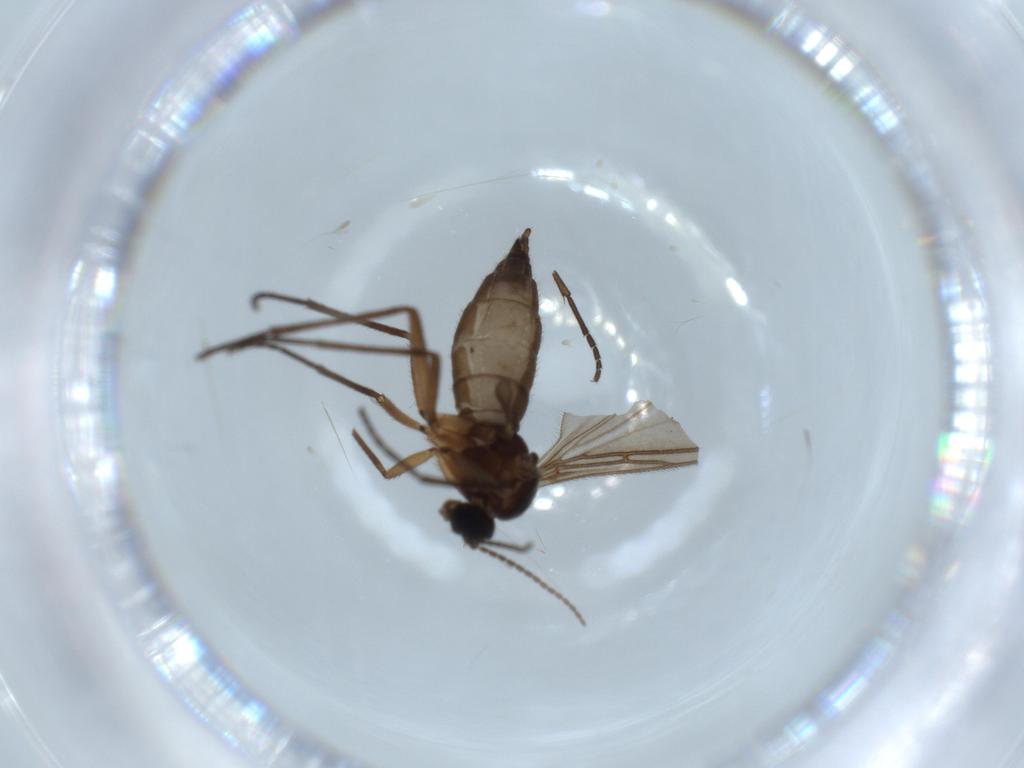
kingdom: Animalia
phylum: Arthropoda
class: Insecta
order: Diptera
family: Sciaridae
